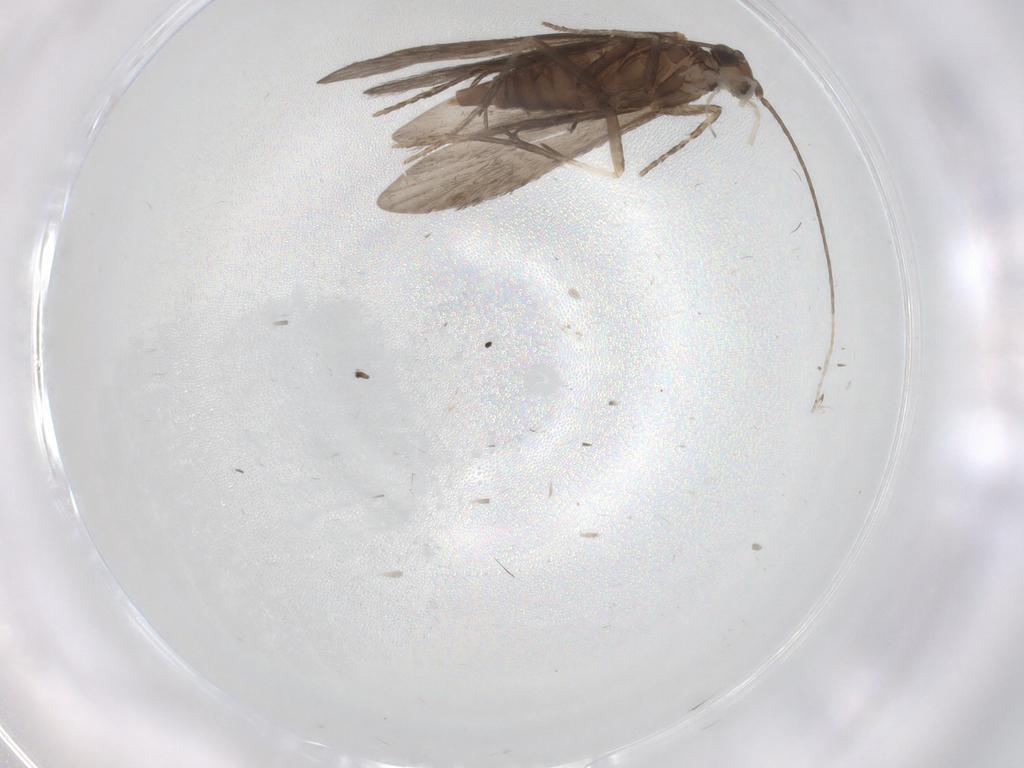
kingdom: Animalia
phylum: Arthropoda
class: Insecta
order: Trichoptera
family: Xiphocentronidae
